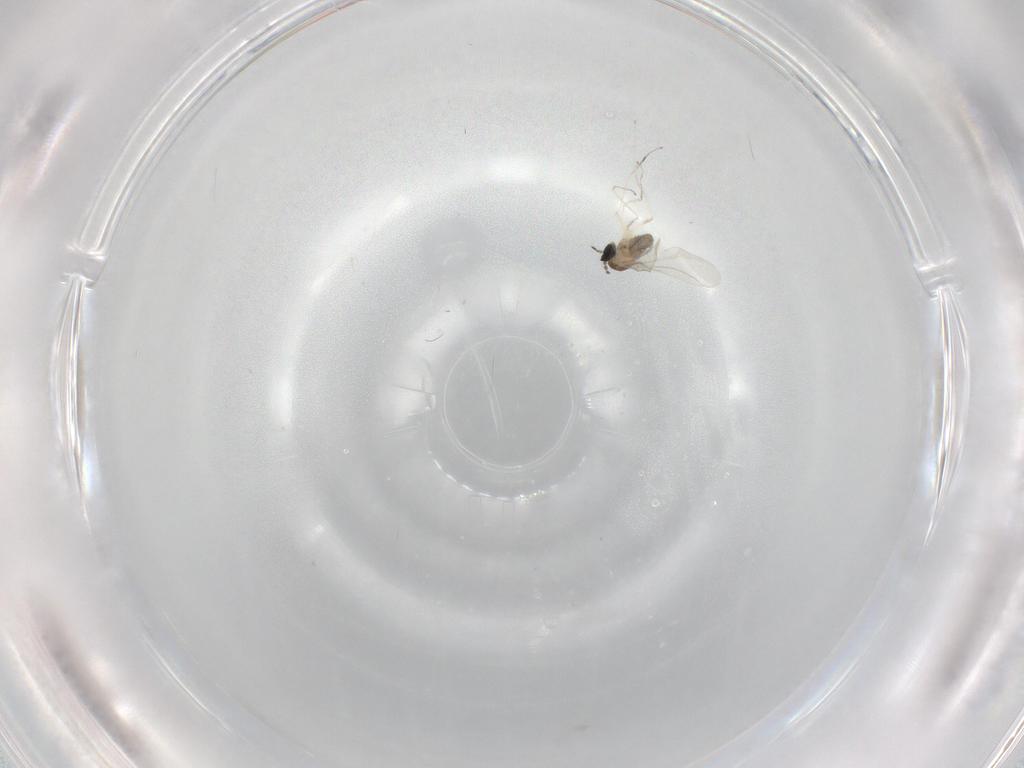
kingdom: Animalia
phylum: Arthropoda
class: Insecta
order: Diptera
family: Cecidomyiidae
